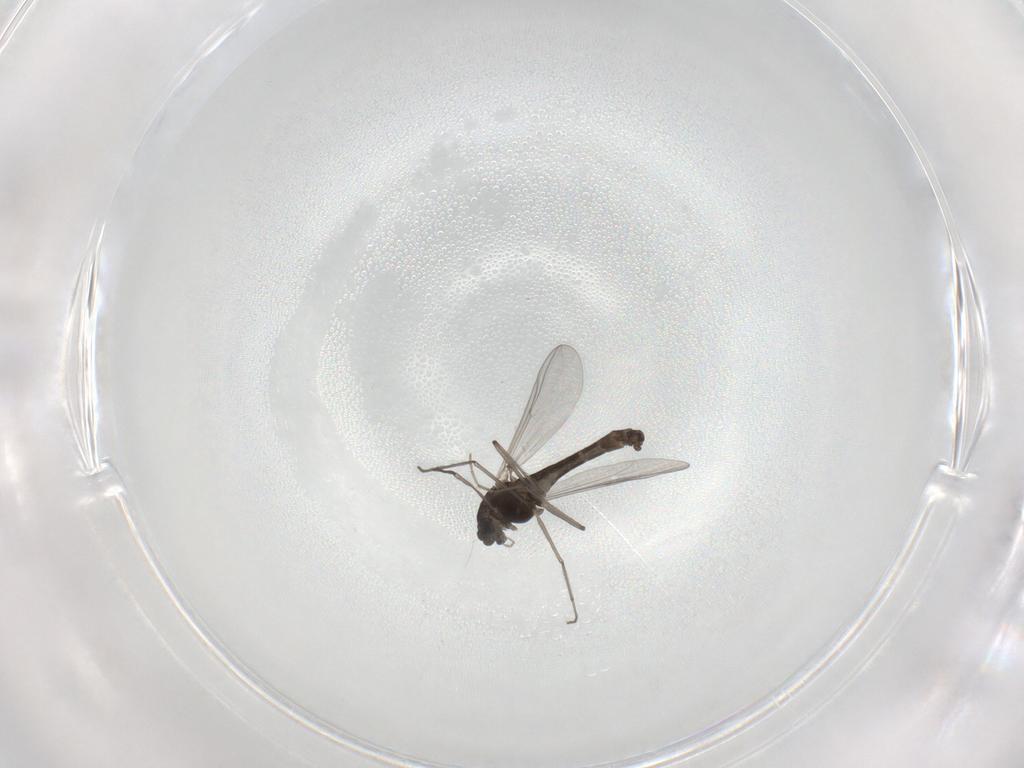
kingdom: Animalia
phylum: Arthropoda
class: Insecta
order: Diptera
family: Chironomidae
